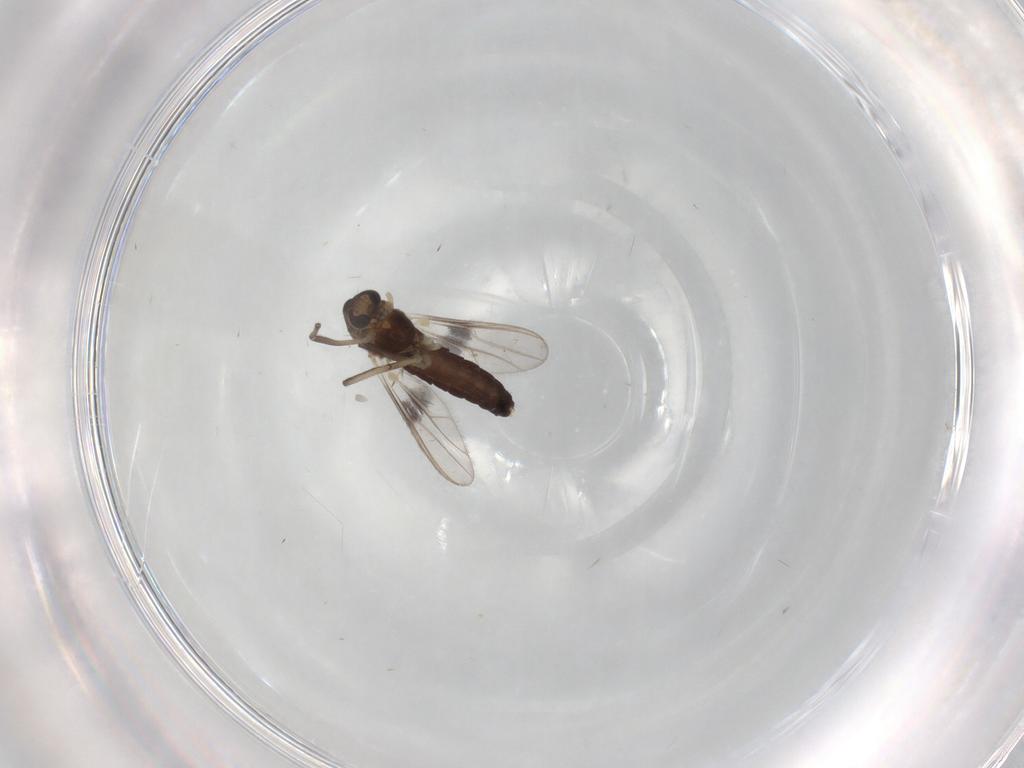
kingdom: Animalia
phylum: Arthropoda
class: Insecta
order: Diptera
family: Chironomidae
